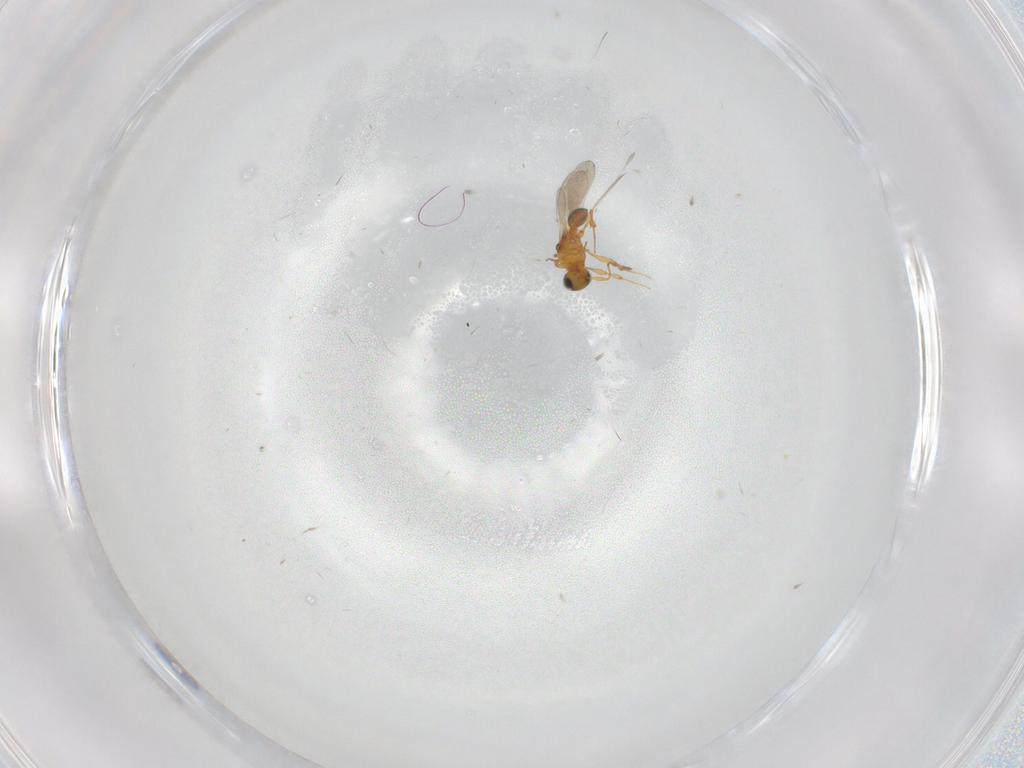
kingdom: Animalia
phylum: Arthropoda
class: Insecta
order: Hymenoptera
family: Platygastridae
